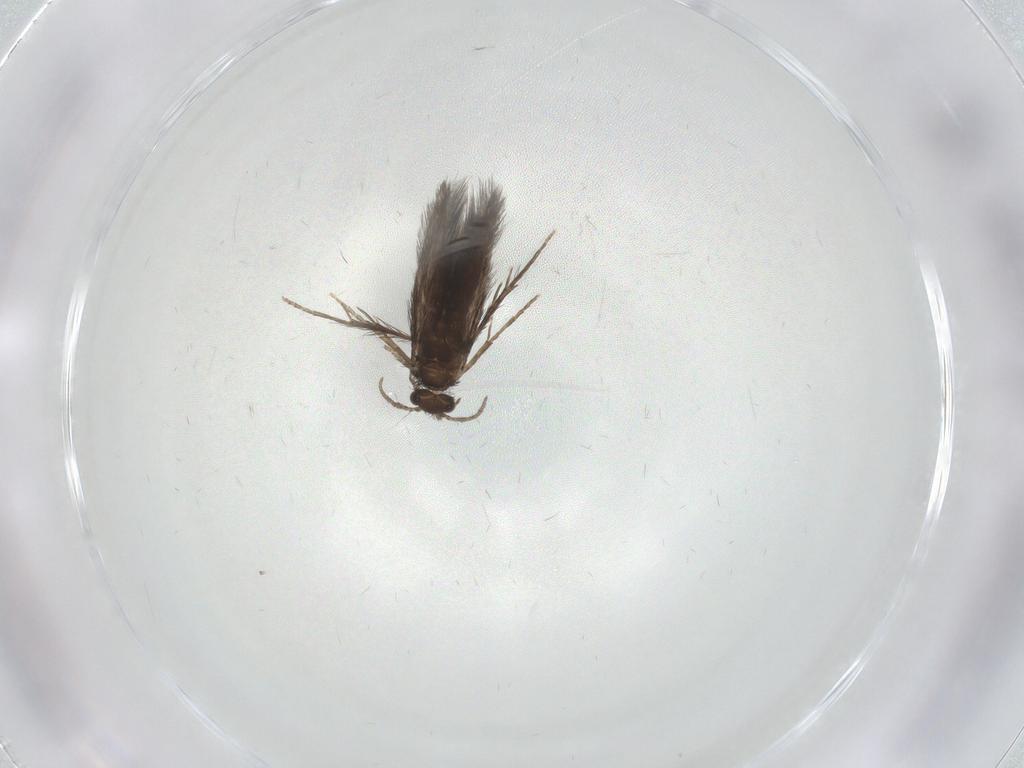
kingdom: Animalia
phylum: Arthropoda
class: Insecta
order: Trichoptera
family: Hydroptilidae
